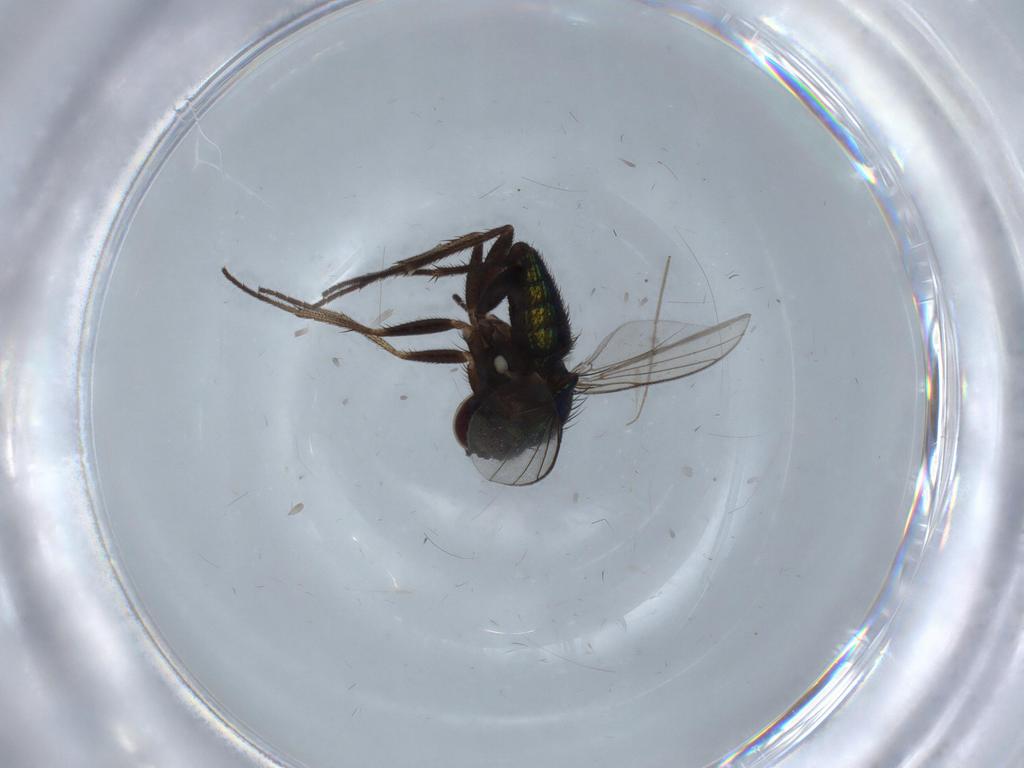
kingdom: Animalia
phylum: Arthropoda
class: Insecta
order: Diptera
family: Dolichopodidae
